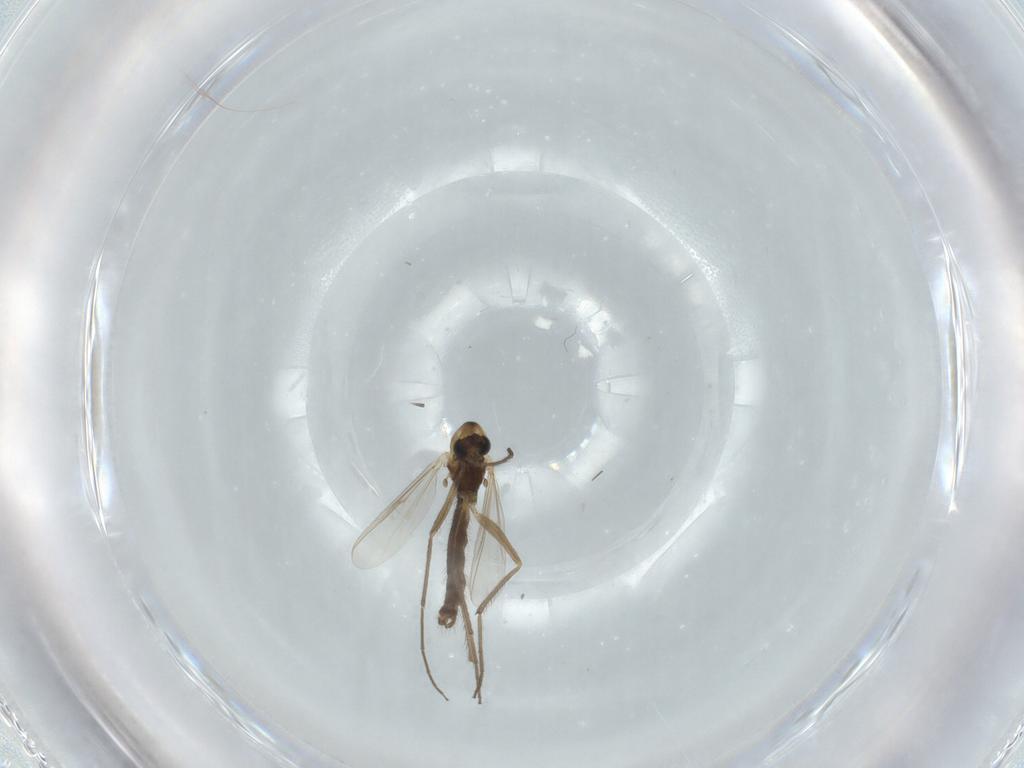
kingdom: Animalia
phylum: Arthropoda
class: Insecta
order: Diptera
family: Chironomidae
